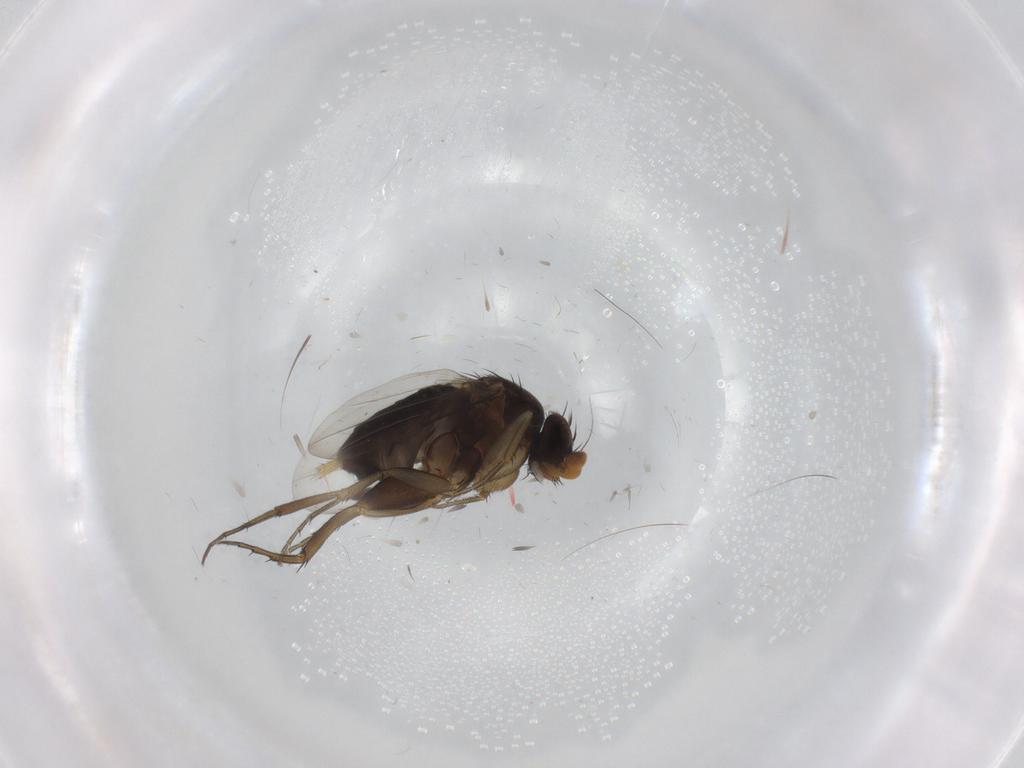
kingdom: Animalia
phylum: Arthropoda
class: Insecta
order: Diptera
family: Phoridae
